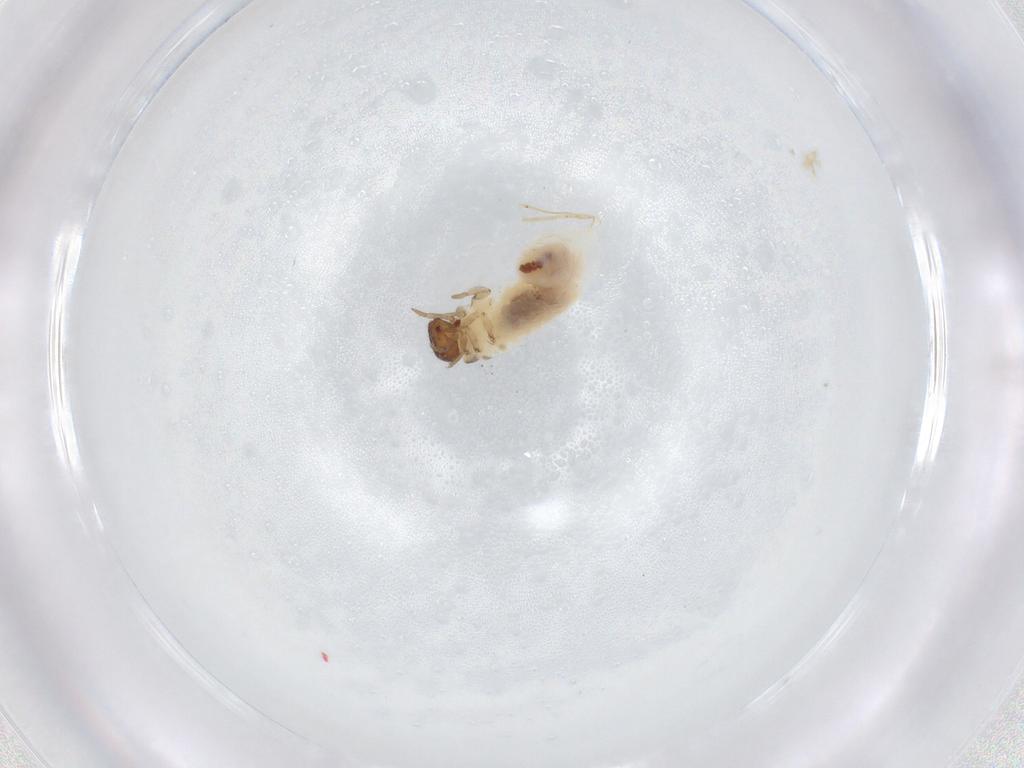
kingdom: Animalia
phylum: Arthropoda
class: Insecta
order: Coleoptera
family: Chrysomelidae
